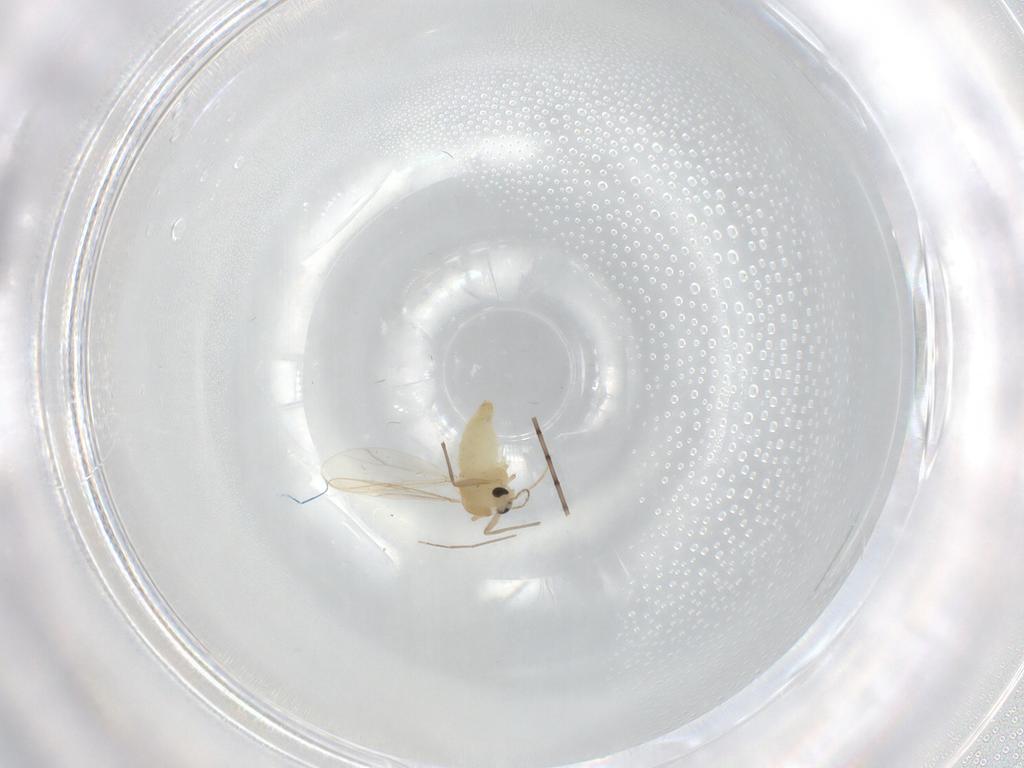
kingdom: Animalia
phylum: Arthropoda
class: Insecta
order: Diptera
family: Chironomidae
